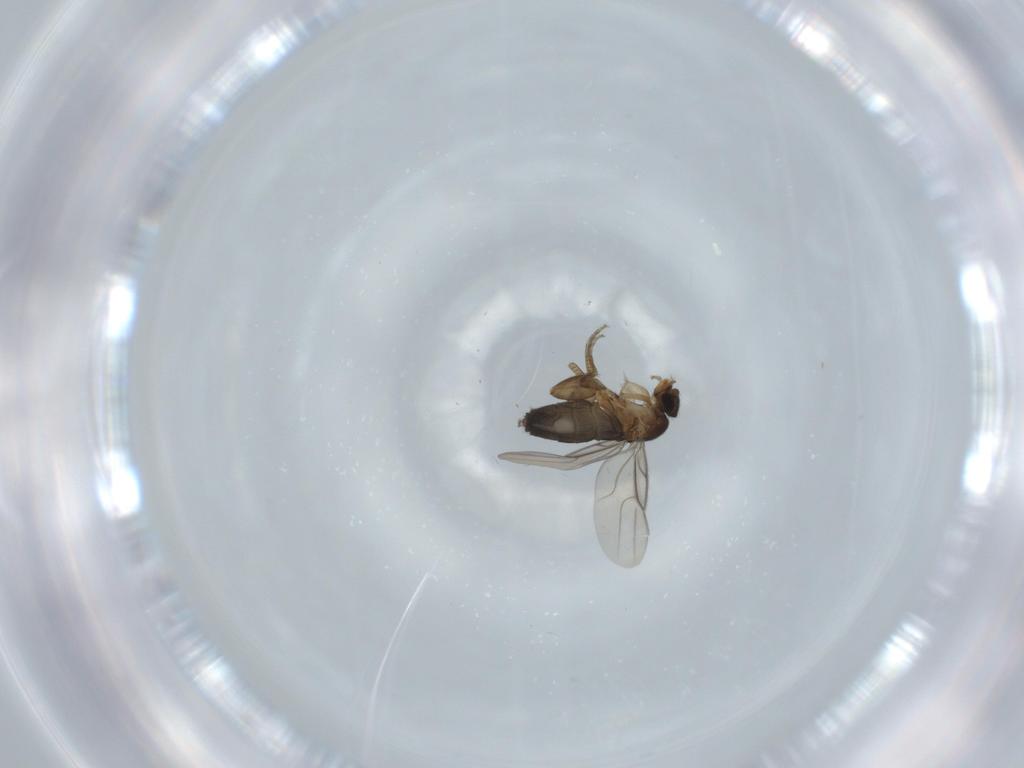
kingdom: Animalia
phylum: Arthropoda
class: Insecta
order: Diptera
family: Phoridae
